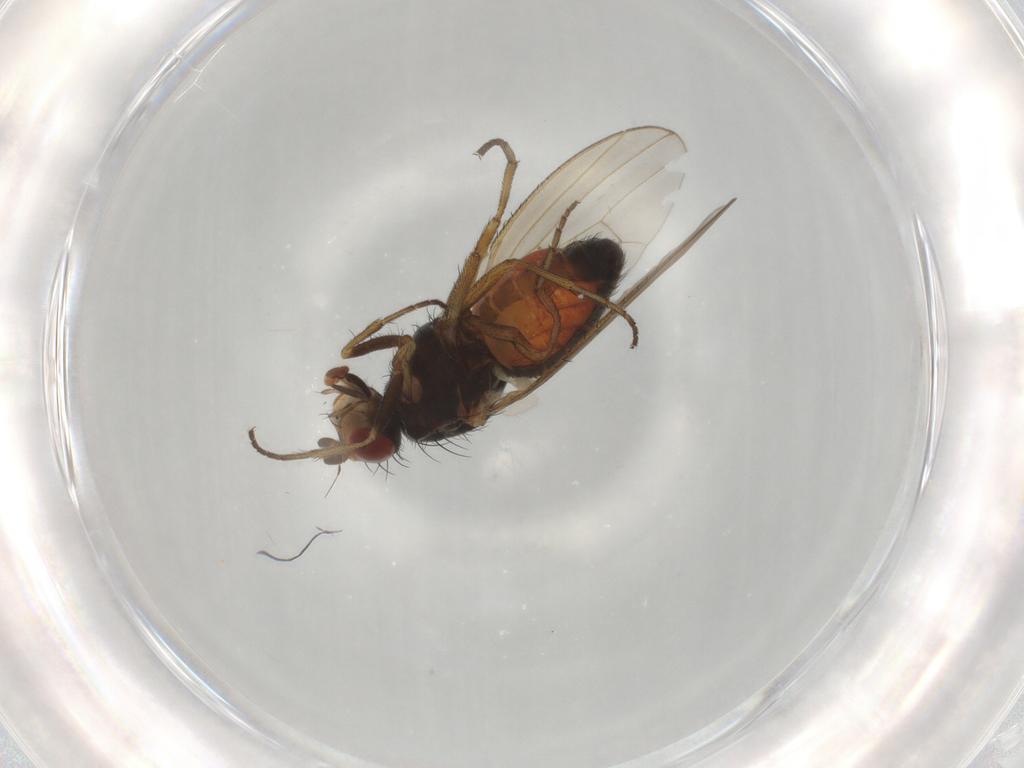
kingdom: Animalia
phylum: Arthropoda
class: Insecta
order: Diptera
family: Heleomyzidae
